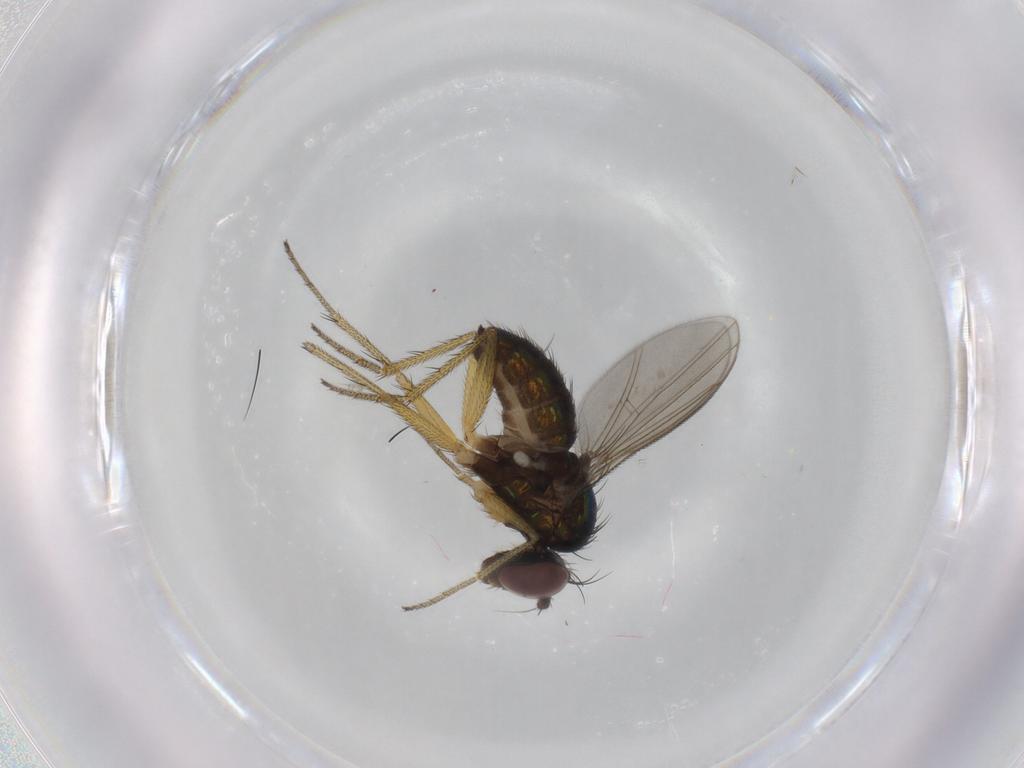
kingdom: Animalia
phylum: Arthropoda
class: Insecta
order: Diptera
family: Dolichopodidae
